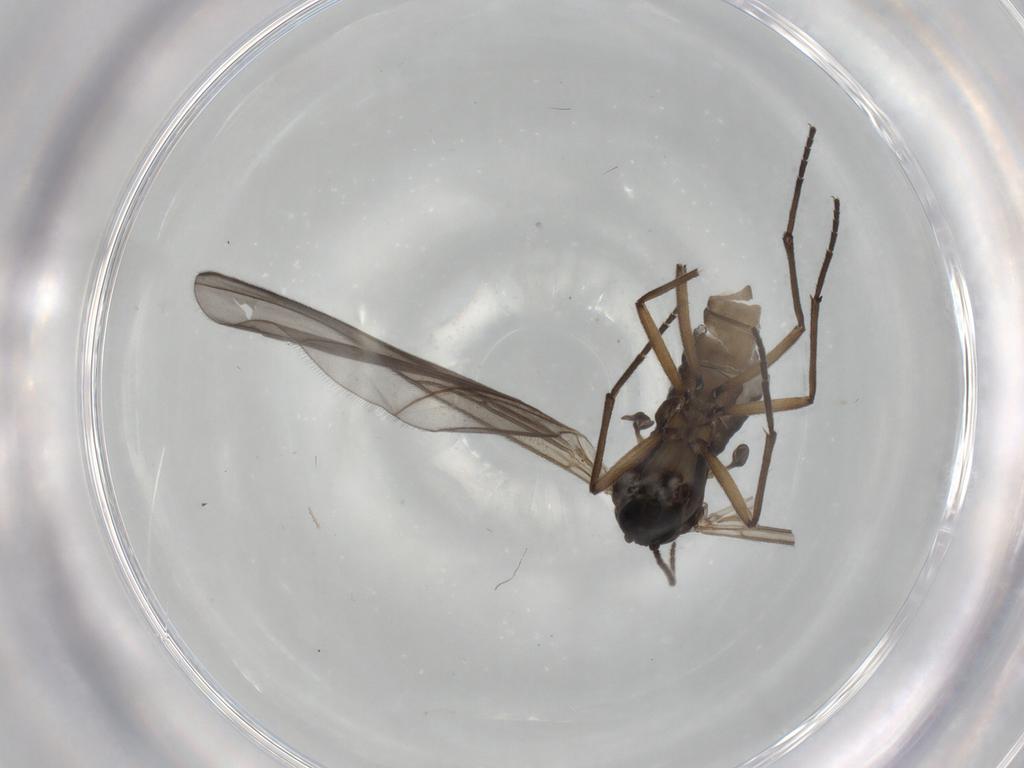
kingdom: Animalia
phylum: Arthropoda
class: Insecta
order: Diptera
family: Sciaridae
